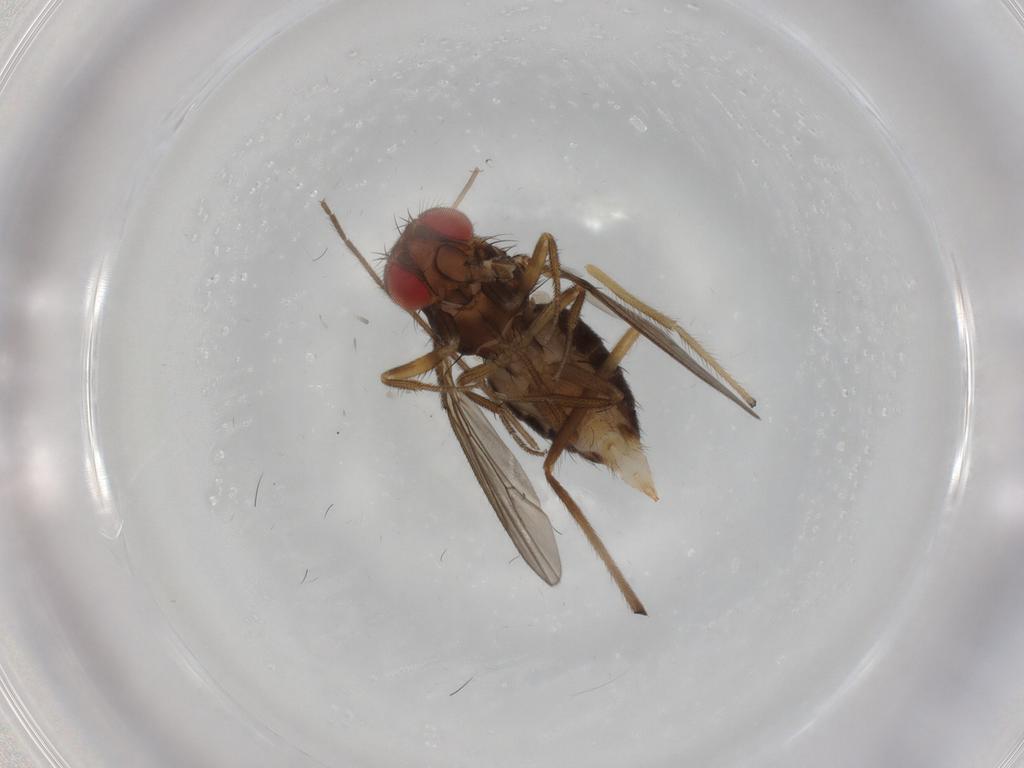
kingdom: Animalia
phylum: Arthropoda
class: Insecta
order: Diptera
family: Drosophilidae
